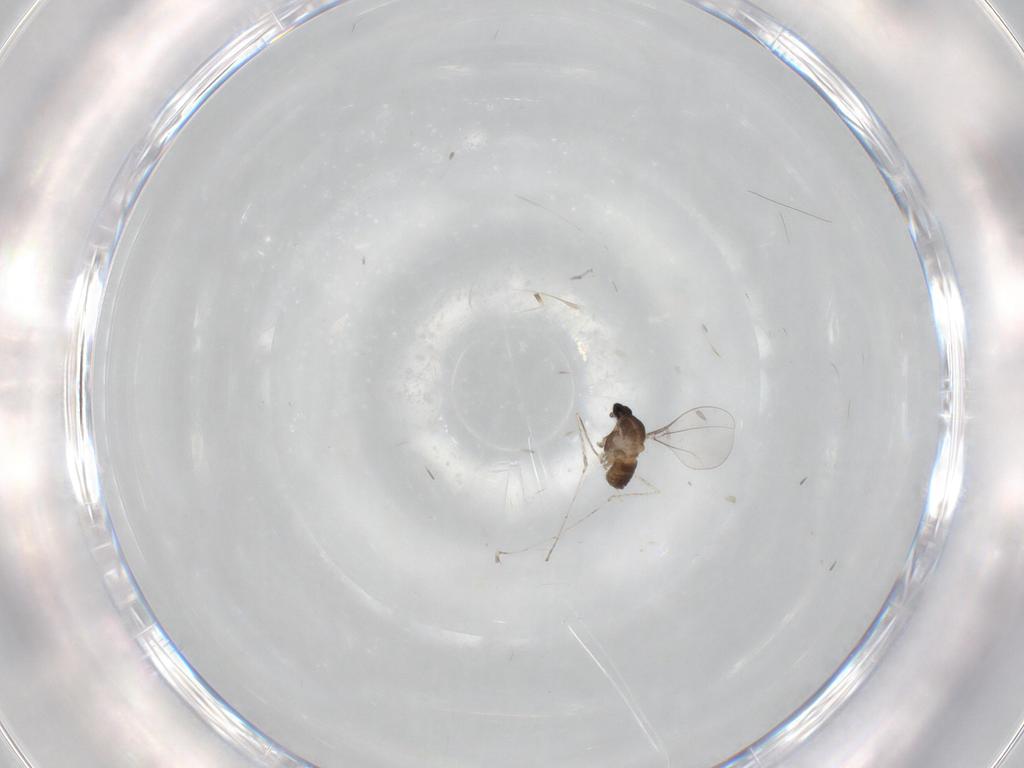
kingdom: Animalia
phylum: Arthropoda
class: Insecta
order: Diptera
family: Cecidomyiidae
